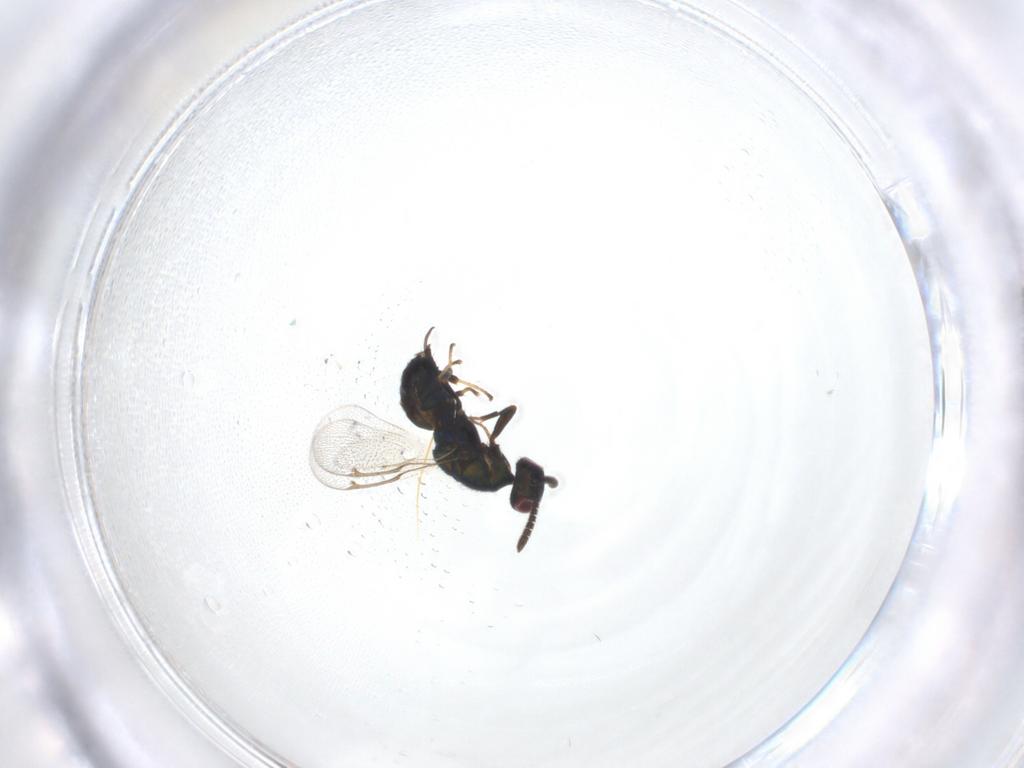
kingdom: Animalia
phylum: Arthropoda
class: Insecta
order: Hymenoptera
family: Torymidae
